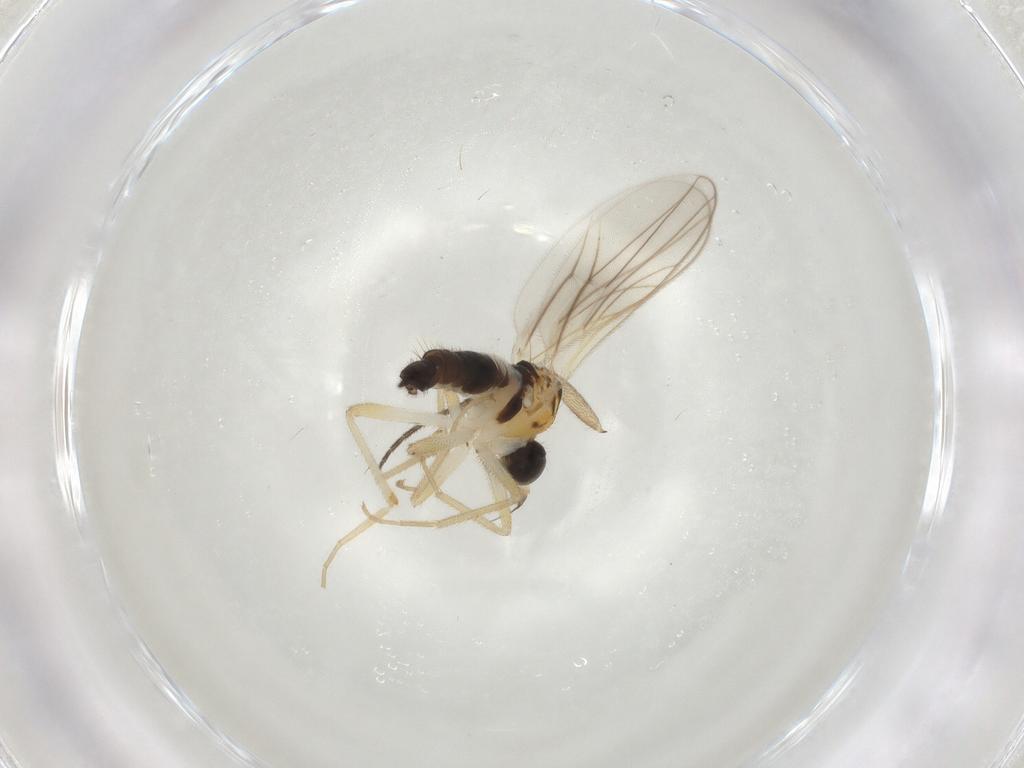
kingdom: Animalia
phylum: Arthropoda
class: Insecta
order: Diptera
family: Hybotidae
